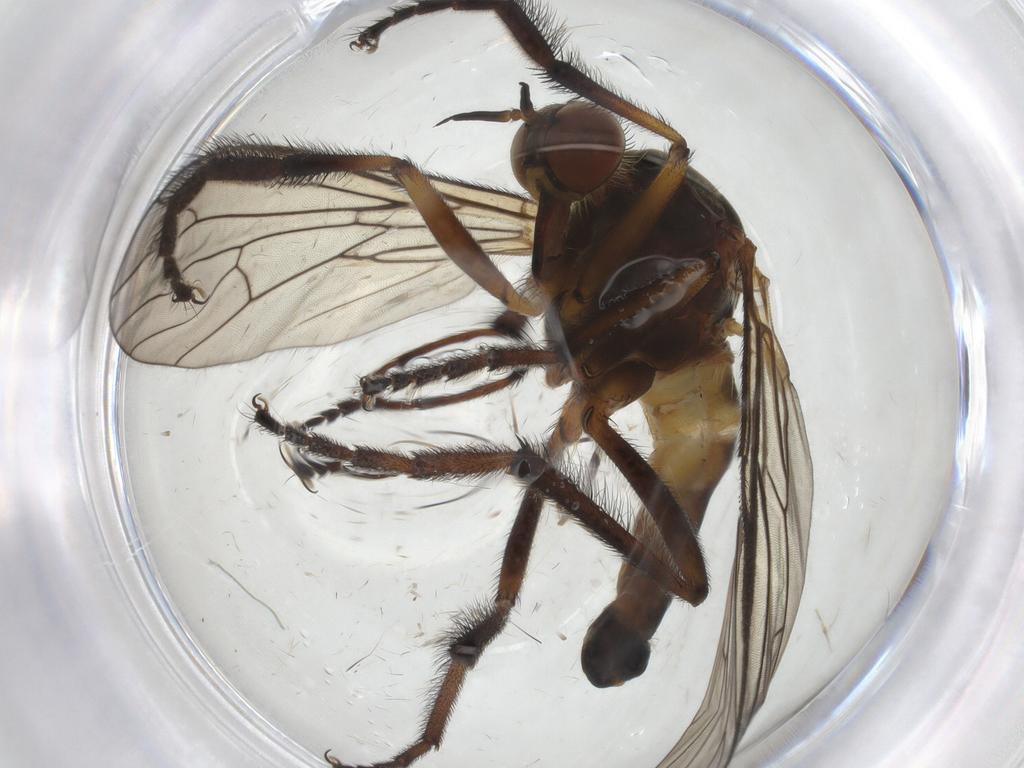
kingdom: Animalia
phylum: Arthropoda
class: Insecta
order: Diptera
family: Empididae
